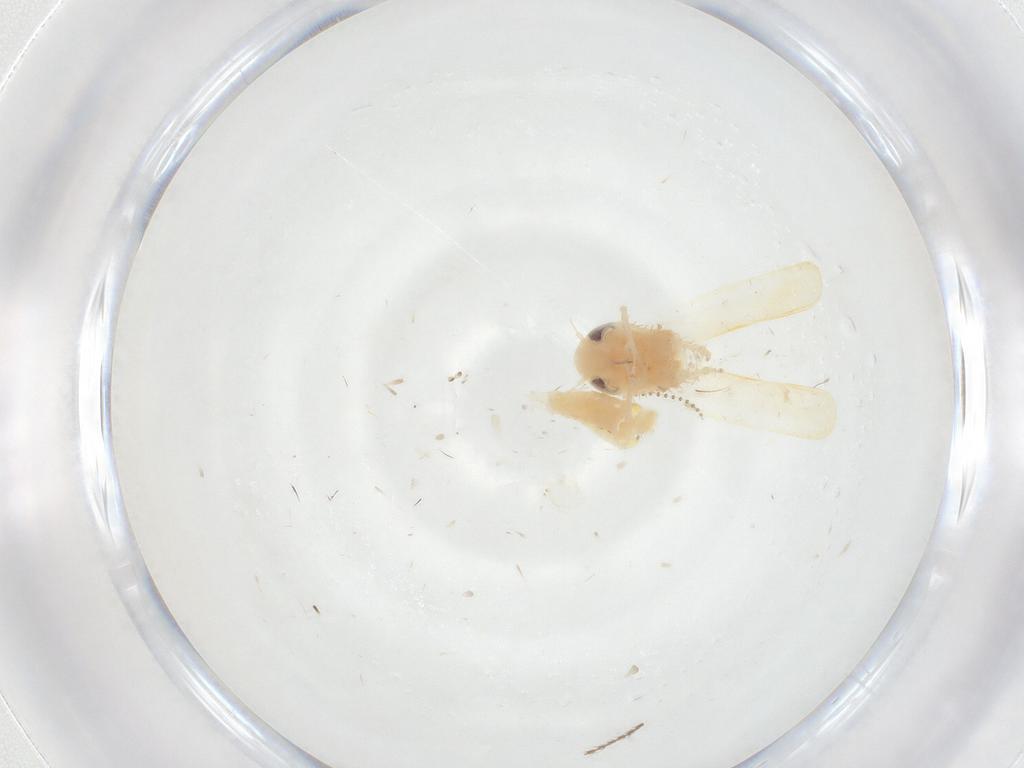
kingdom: Animalia
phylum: Arthropoda
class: Insecta
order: Hemiptera
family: Cicadellidae
